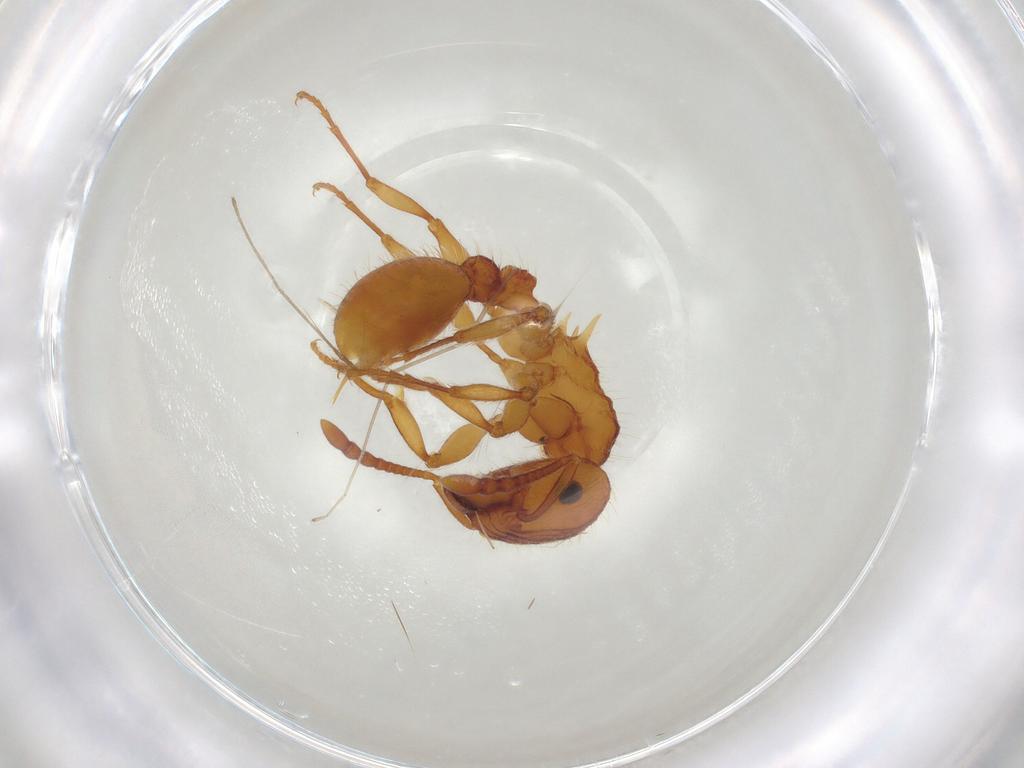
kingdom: Animalia
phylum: Arthropoda
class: Insecta
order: Hymenoptera
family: Formicidae
